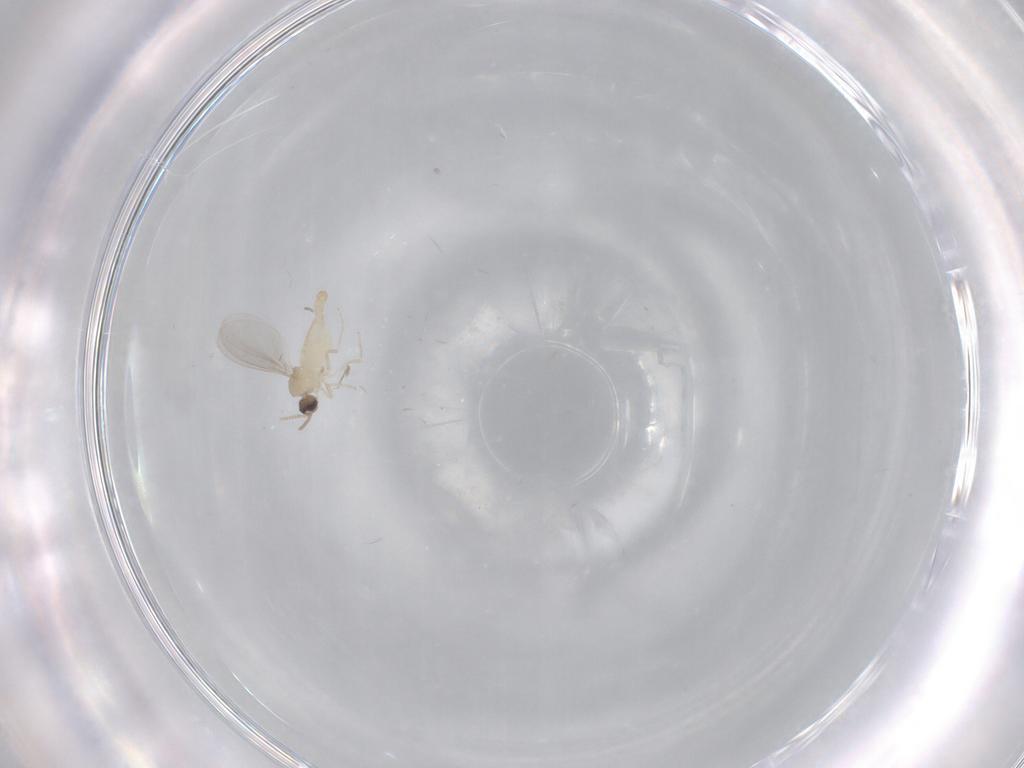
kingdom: Animalia
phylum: Arthropoda
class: Insecta
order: Diptera
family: Cecidomyiidae
